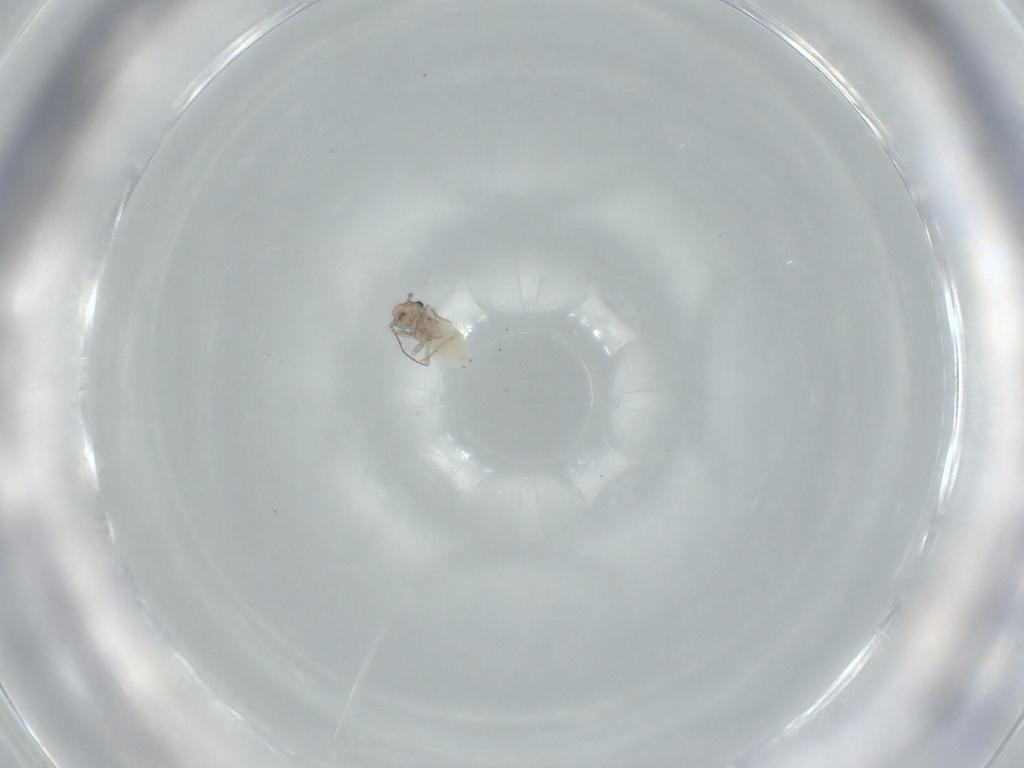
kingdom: Animalia
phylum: Arthropoda
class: Insecta
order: Psocodea
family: Lepidopsocidae
